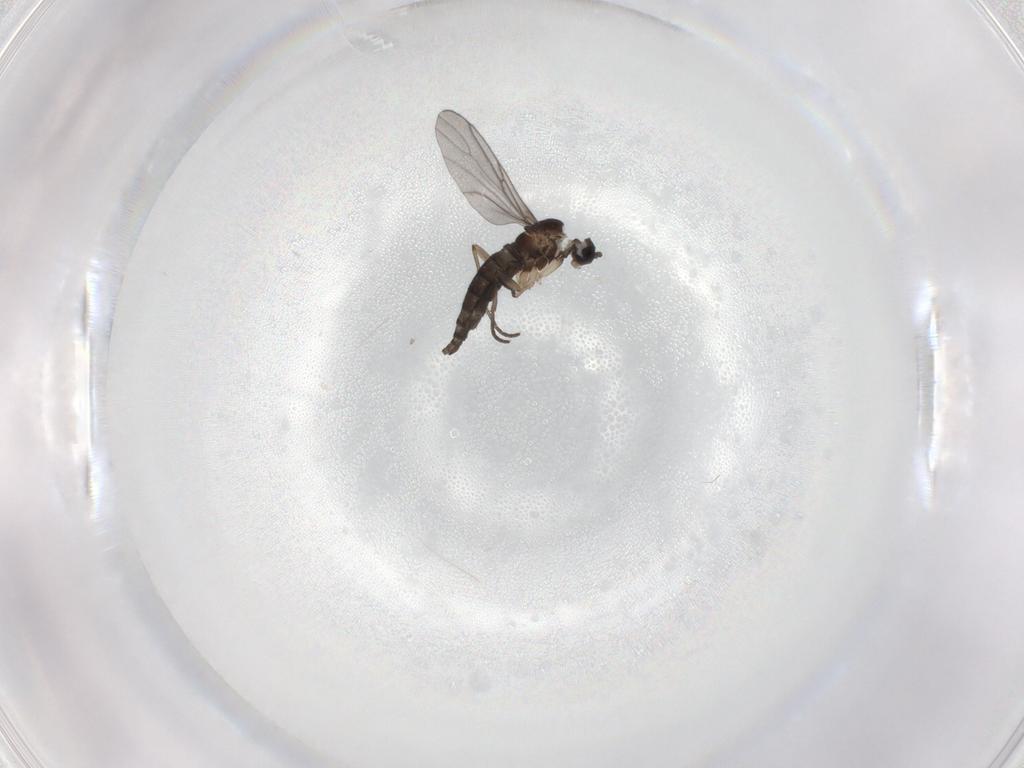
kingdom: Animalia
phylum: Arthropoda
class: Insecta
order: Diptera
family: Sciaridae
